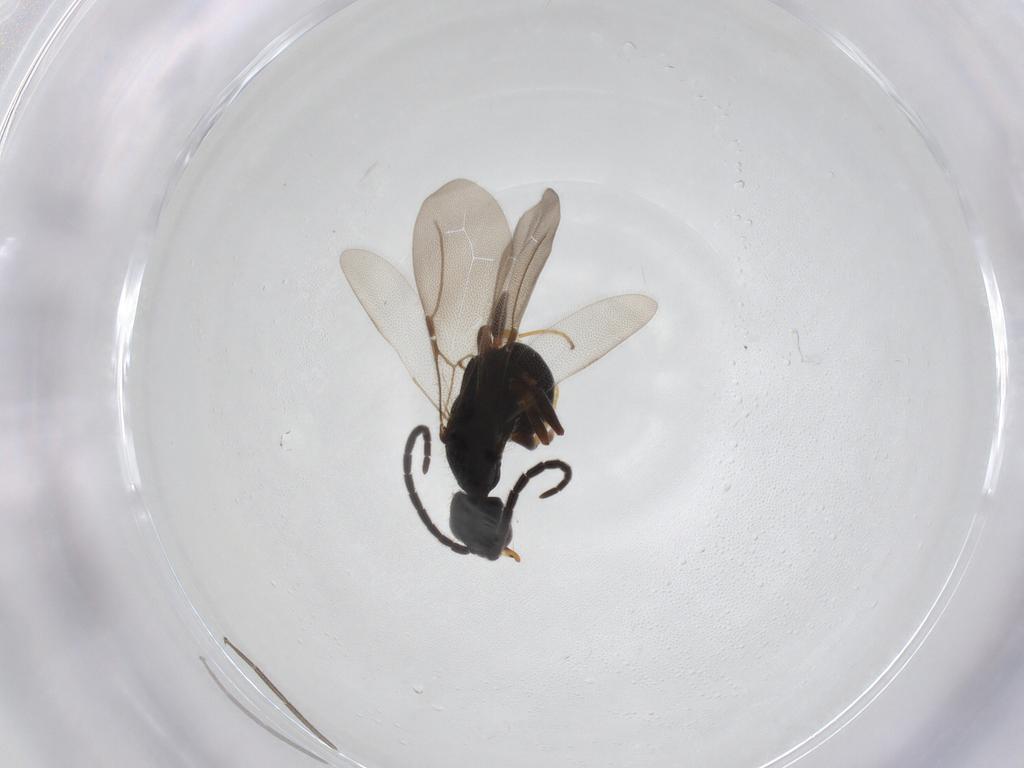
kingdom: Animalia
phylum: Arthropoda
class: Insecta
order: Hymenoptera
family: Bethylidae
